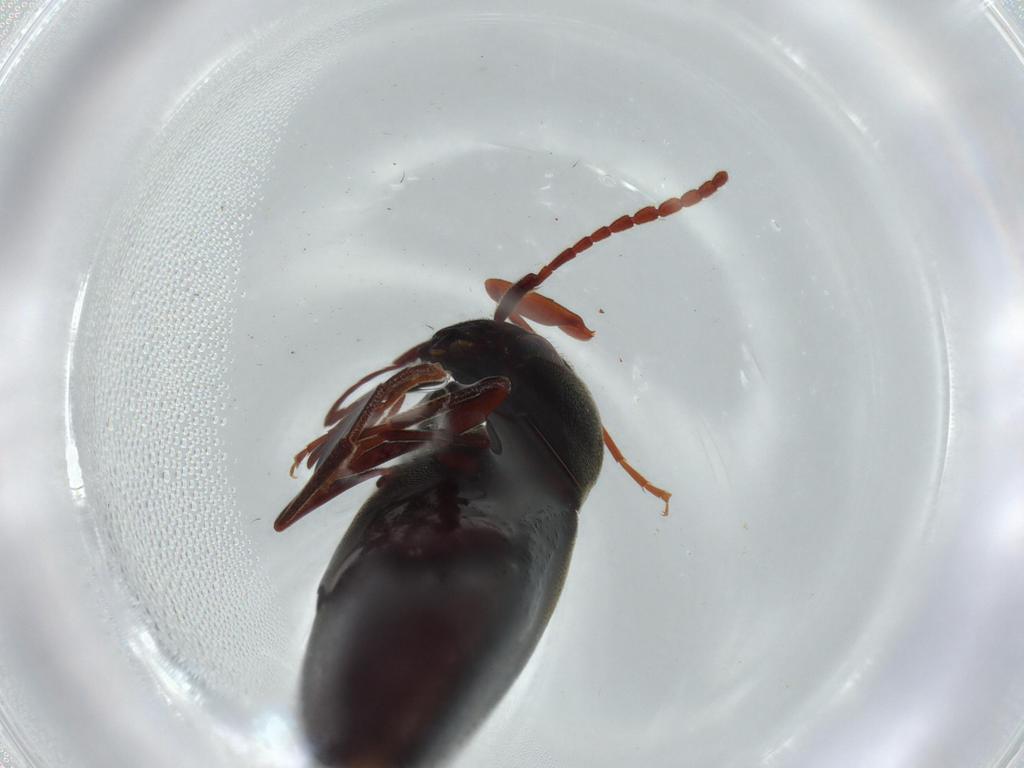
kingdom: Animalia
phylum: Arthropoda
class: Insecta
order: Coleoptera
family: Eucnemidae
